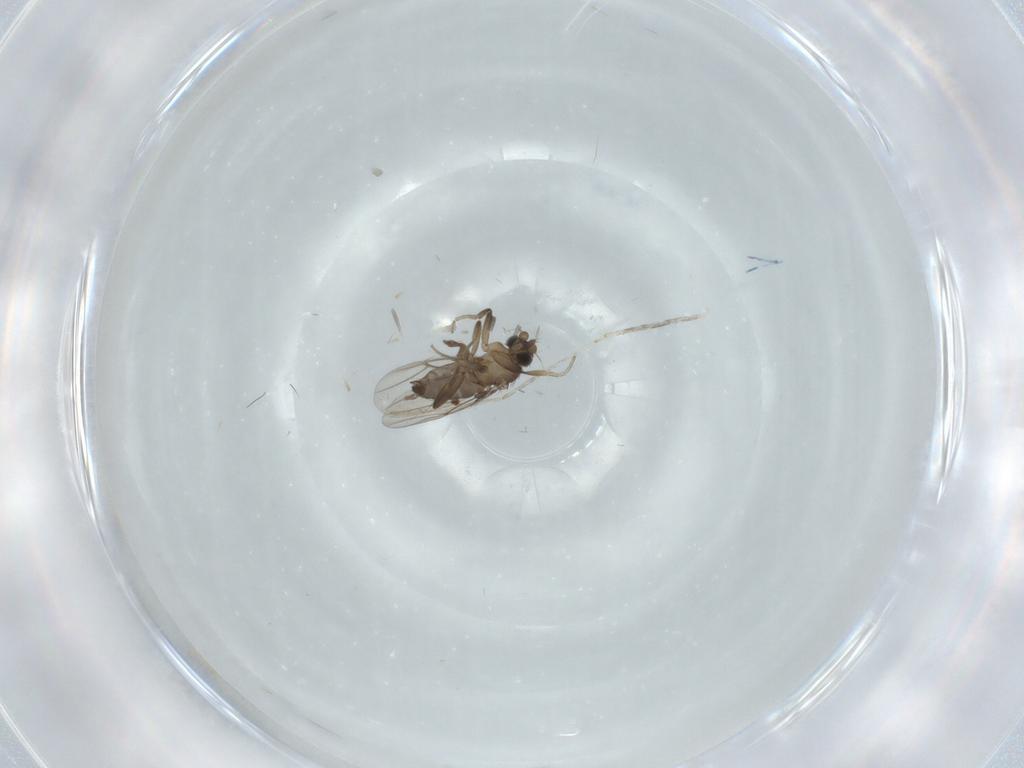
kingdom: Animalia
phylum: Arthropoda
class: Insecta
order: Diptera
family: Phoridae
